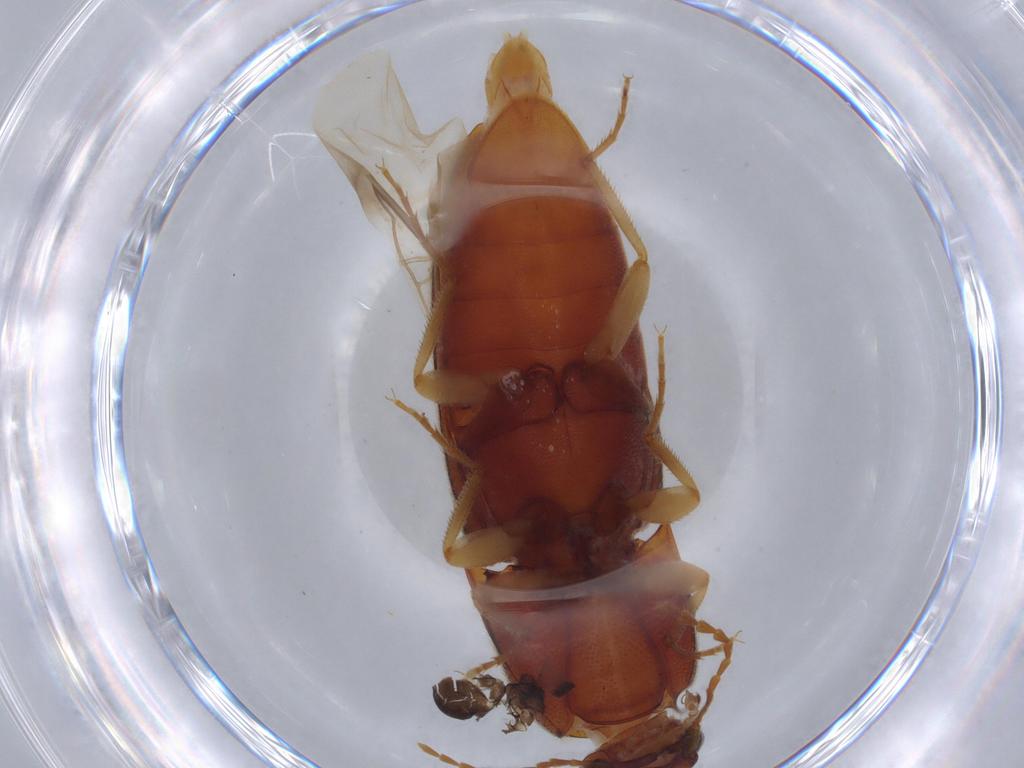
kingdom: Animalia
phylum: Arthropoda
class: Insecta
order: Coleoptera
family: Elateridae
